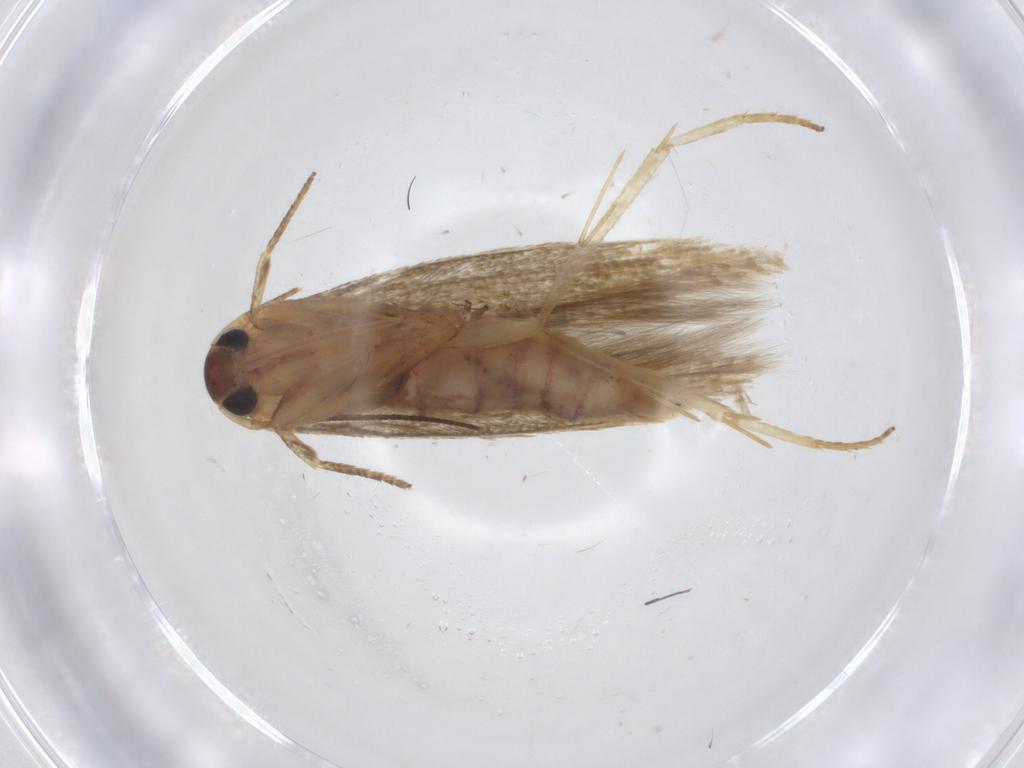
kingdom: Animalia
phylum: Arthropoda
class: Insecta
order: Lepidoptera
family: Stathmopodidae
